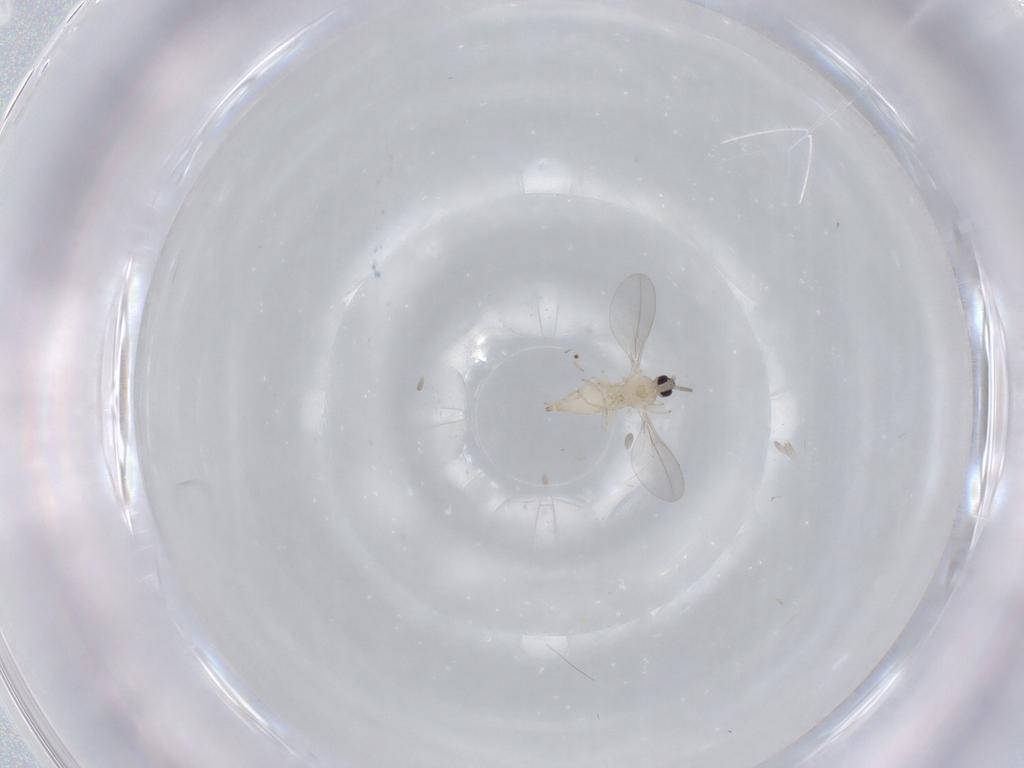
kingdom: Animalia
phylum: Arthropoda
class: Insecta
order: Diptera
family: Cecidomyiidae
